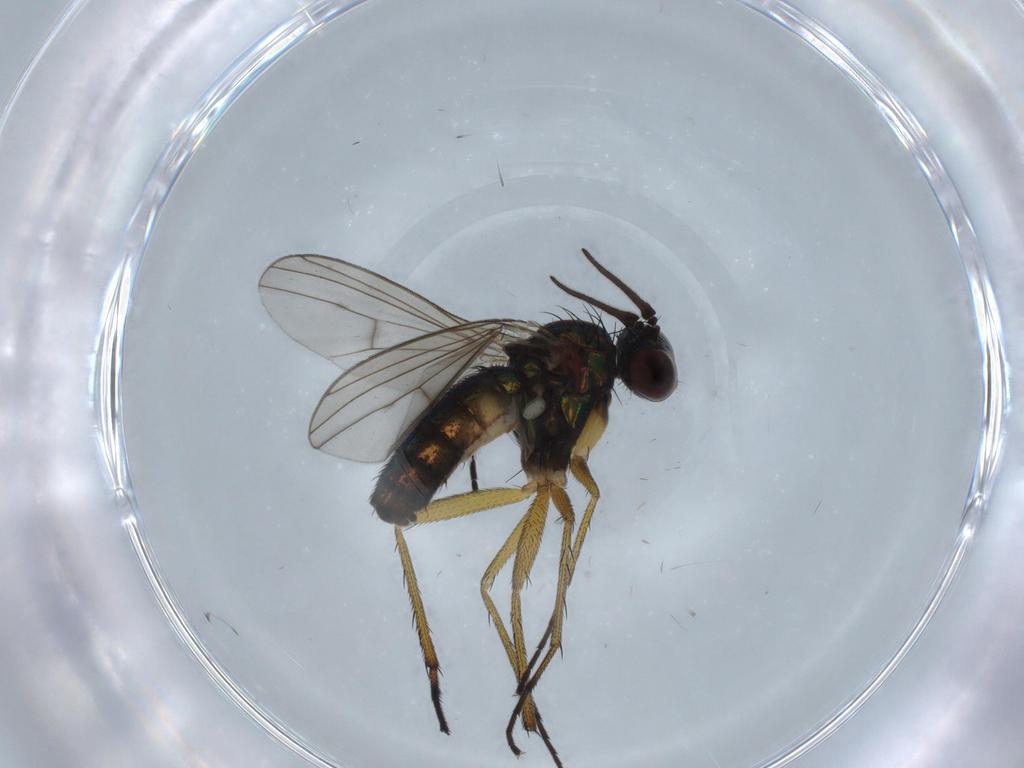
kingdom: Animalia
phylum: Arthropoda
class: Insecta
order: Diptera
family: Dolichopodidae
